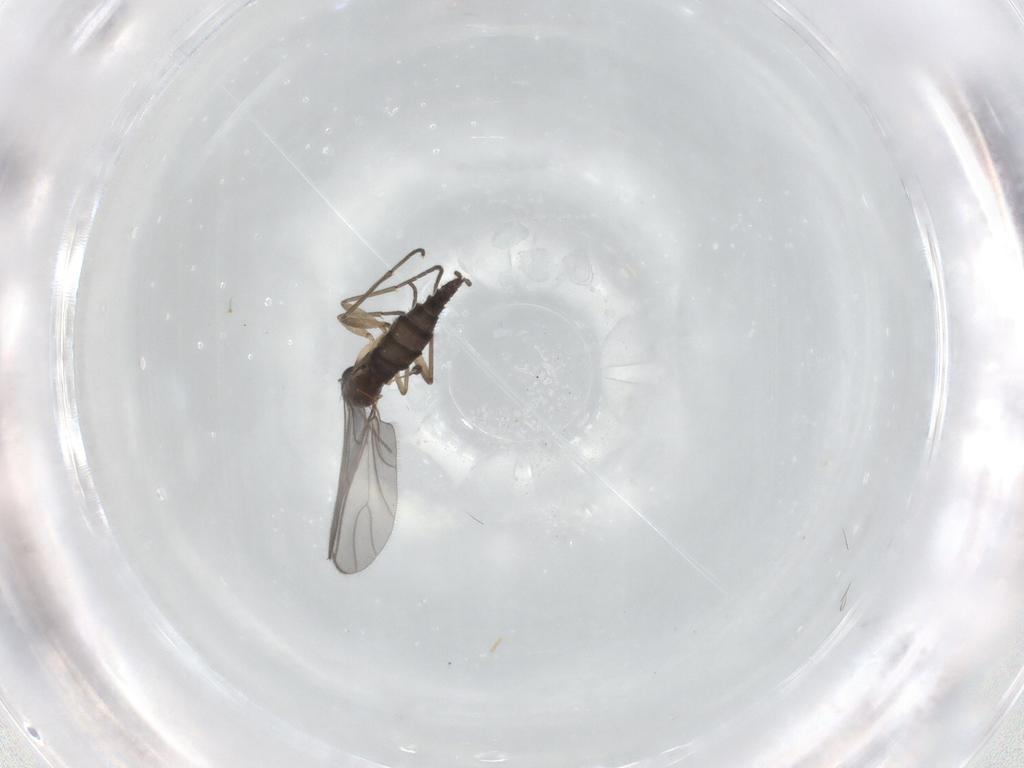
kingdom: Animalia
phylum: Arthropoda
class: Insecta
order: Diptera
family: Sciaridae
